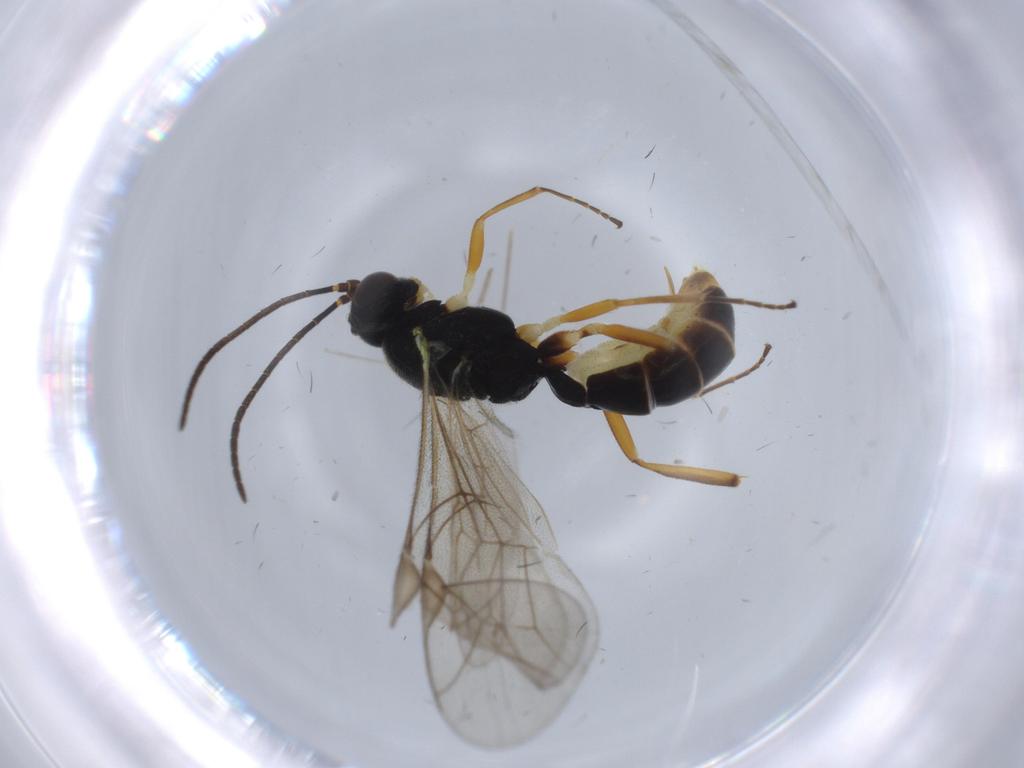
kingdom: Animalia
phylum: Arthropoda
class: Insecta
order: Hymenoptera
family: Ichneumonidae
